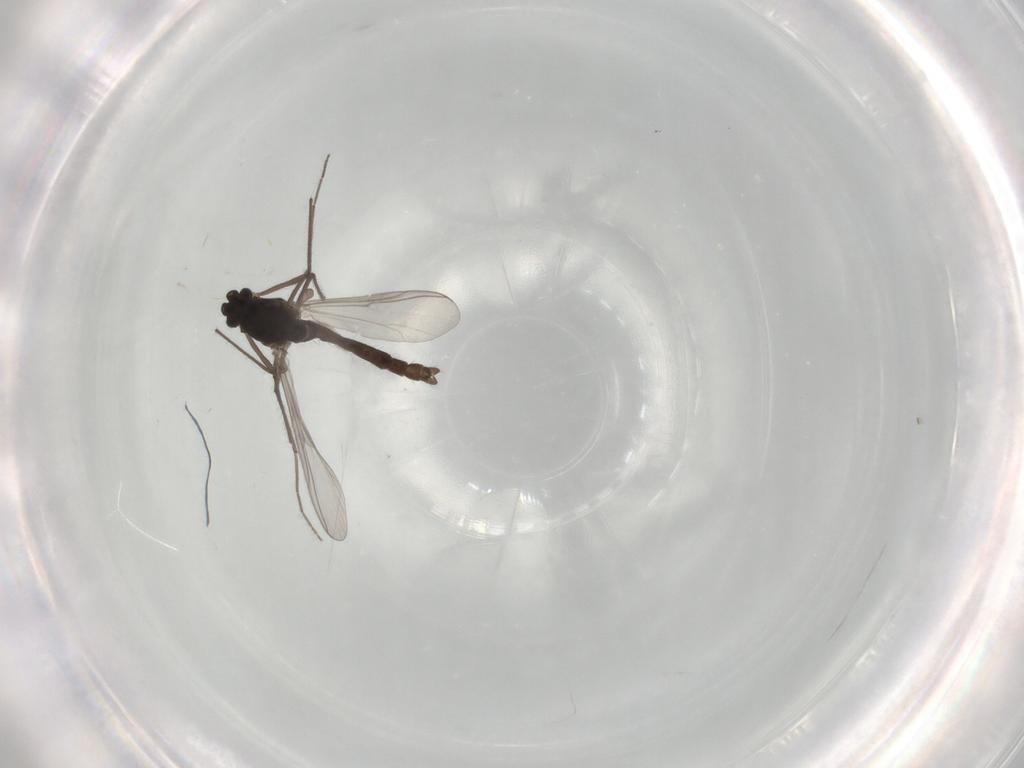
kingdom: Animalia
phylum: Arthropoda
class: Insecta
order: Diptera
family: Chironomidae
